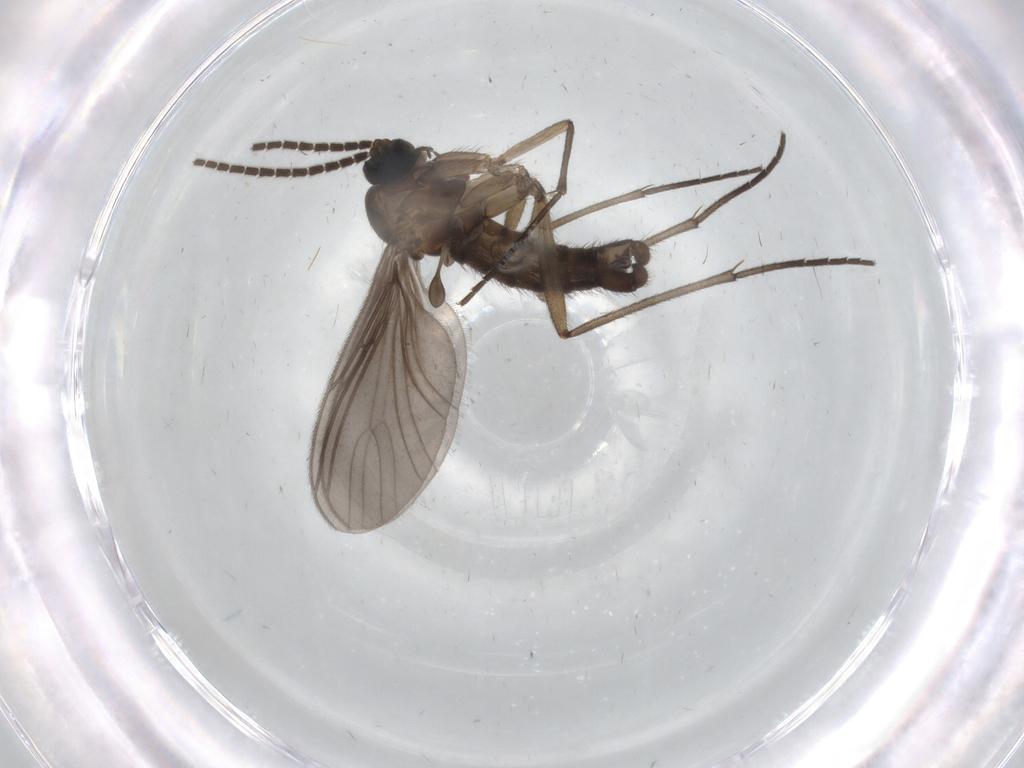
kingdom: Animalia
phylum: Arthropoda
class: Insecta
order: Diptera
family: Sciaridae
